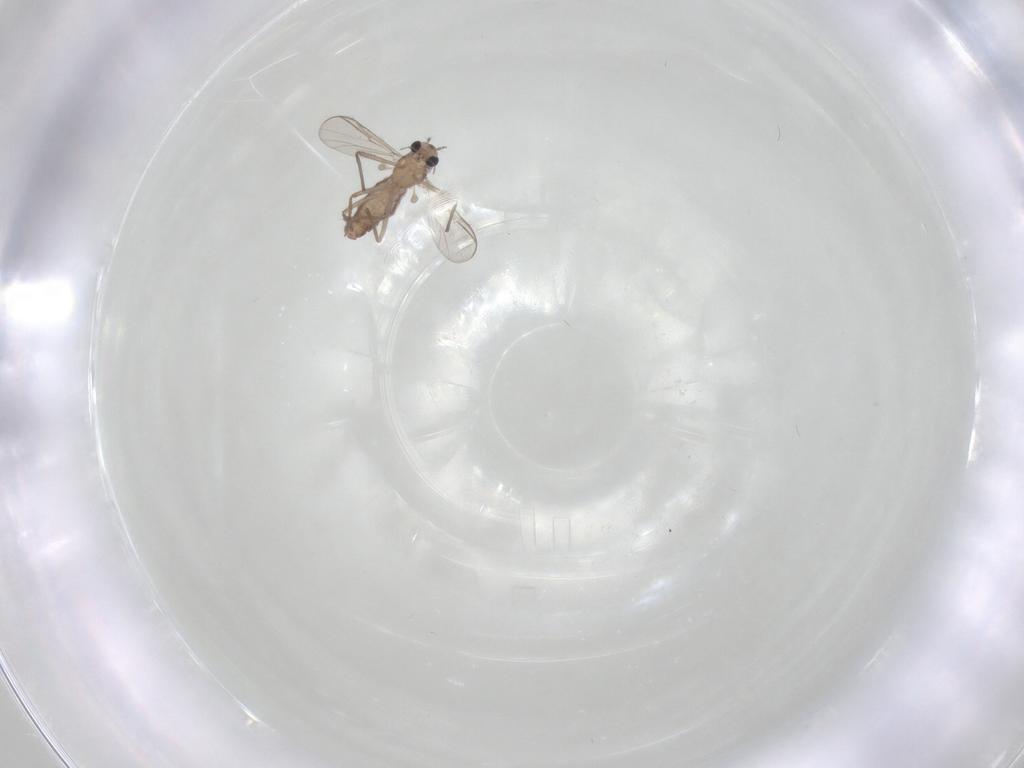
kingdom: Animalia
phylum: Arthropoda
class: Insecta
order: Diptera
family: Chironomidae
